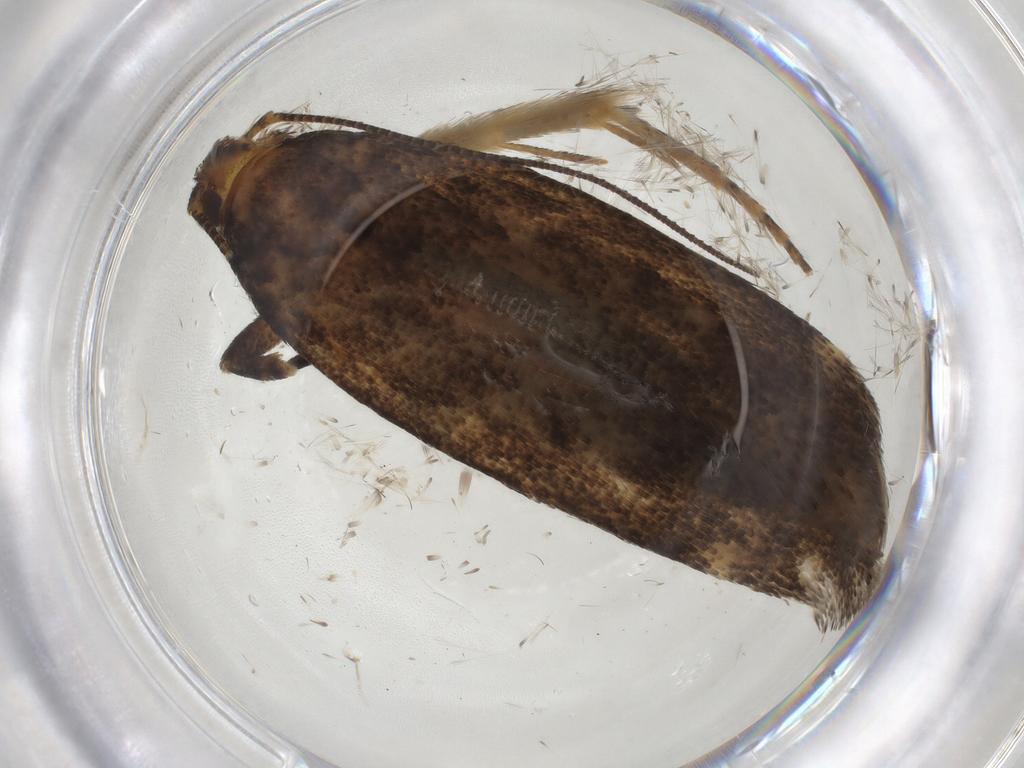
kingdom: Animalia
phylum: Arthropoda
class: Insecta
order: Lepidoptera
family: Gelechiidae
